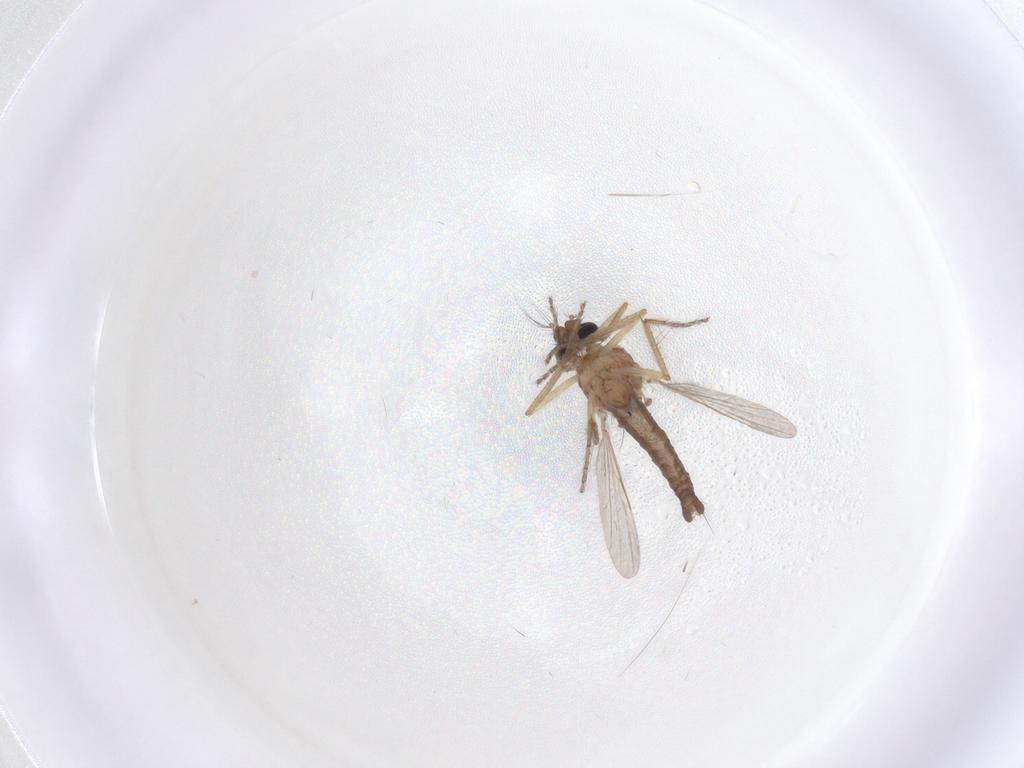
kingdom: Animalia
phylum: Arthropoda
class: Insecta
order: Diptera
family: Ceratopogonidae
